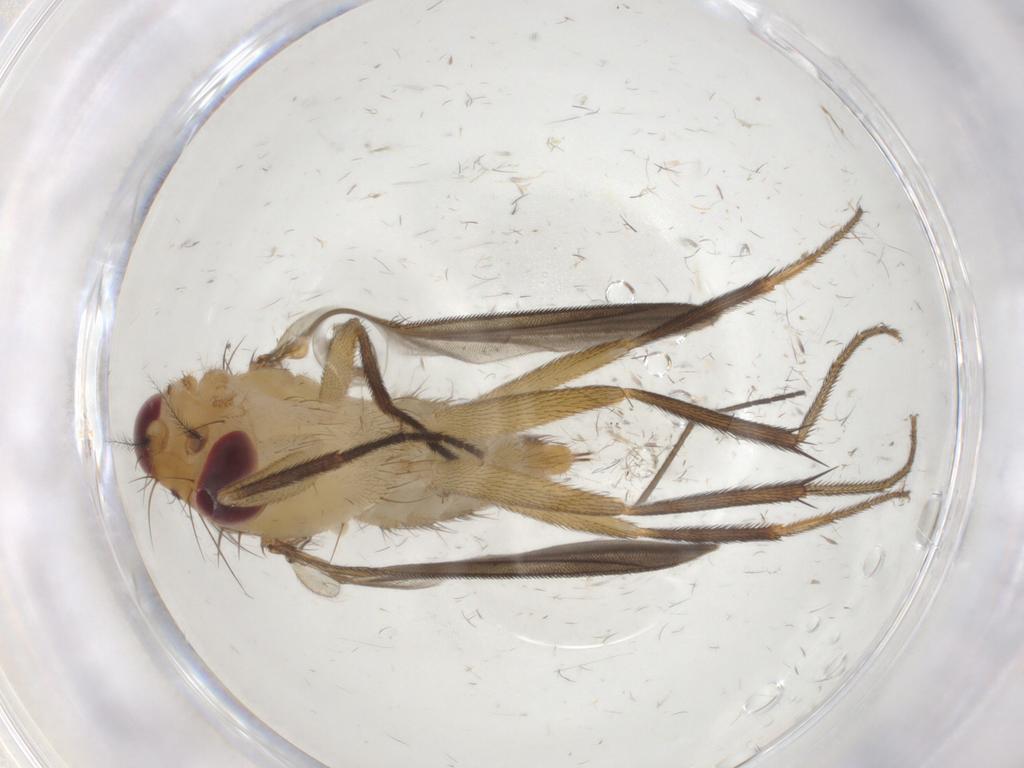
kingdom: Animalia
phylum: Arthropoda
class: Insecta
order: Diptera
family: Clusiidae
